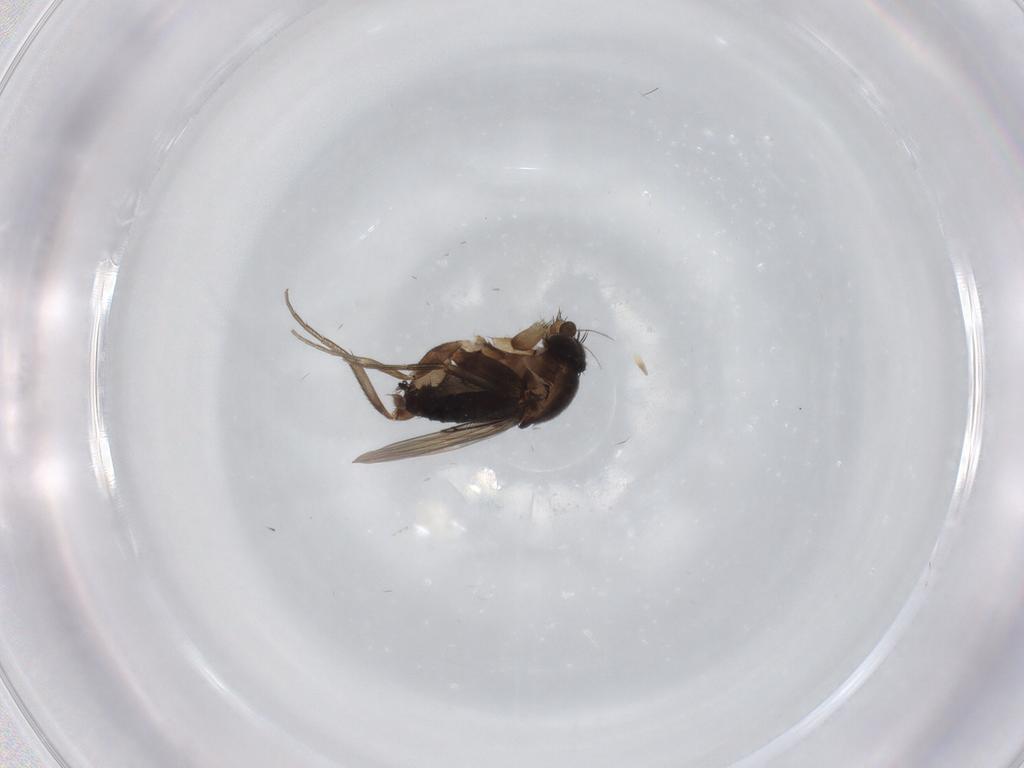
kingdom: Animalia
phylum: Arthropoda
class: Insecta
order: Diptera
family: Phoridae
